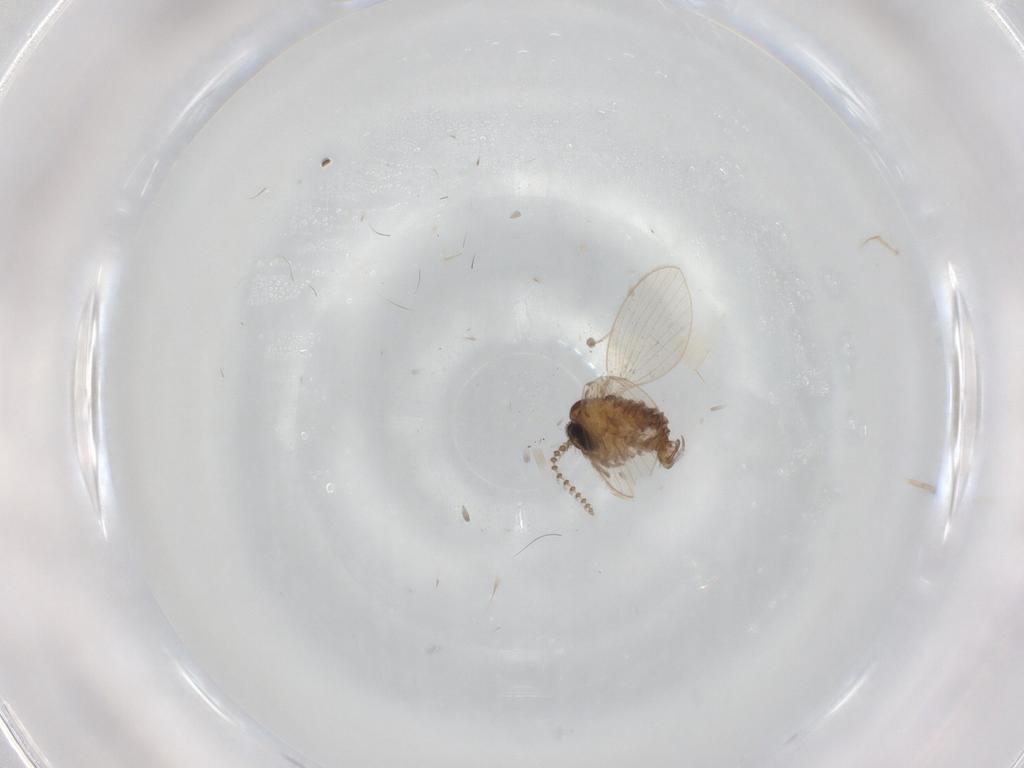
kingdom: Animalia
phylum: Arthropoda
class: Insecta
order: Diptera
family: Psychodidae
